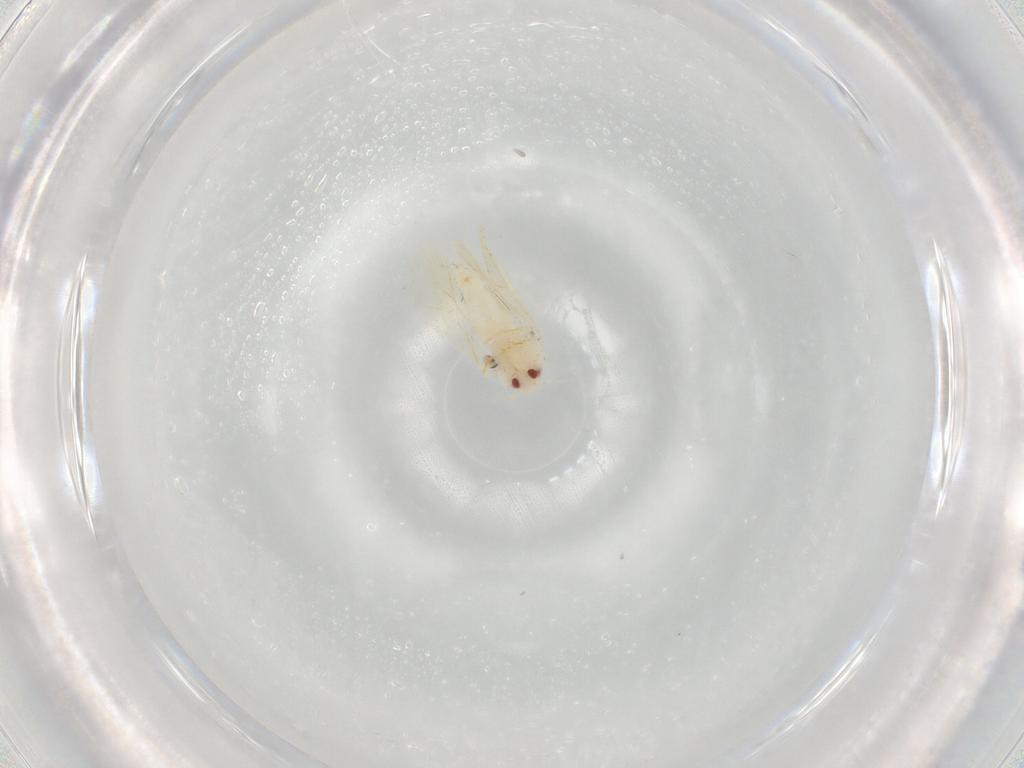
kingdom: Animalia
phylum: Arthropoda
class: Insecta
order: Hemiptera
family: Aleyrodidae
